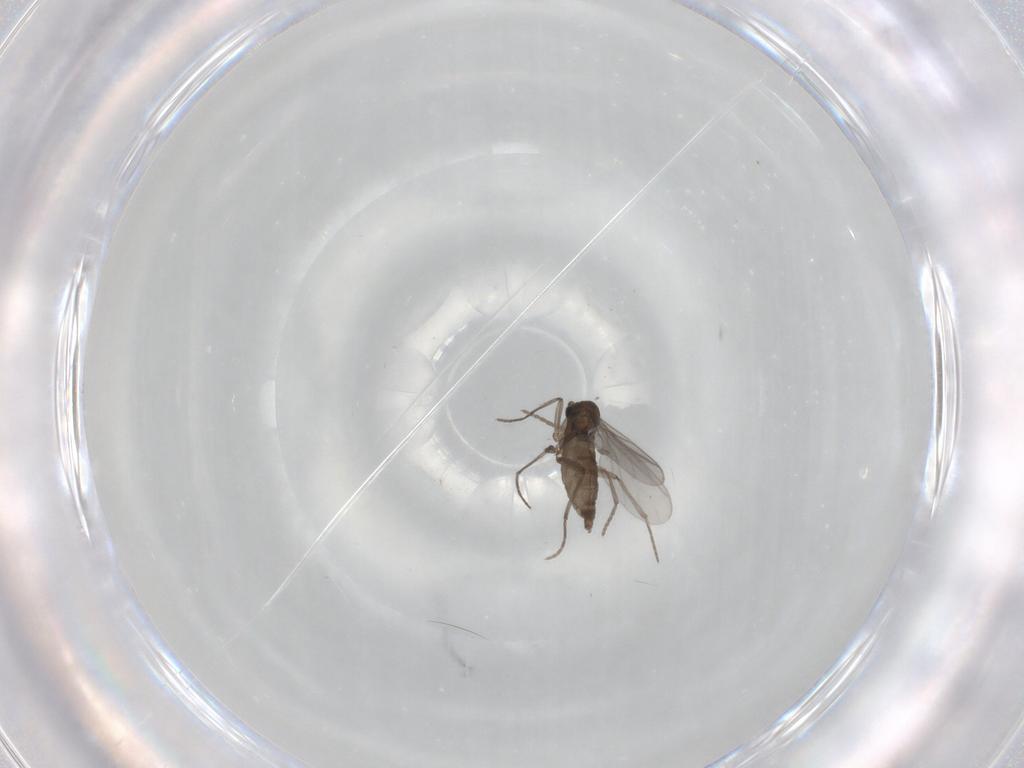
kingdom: Animalia
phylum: Arthropoda
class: Insecta
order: Diptera
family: Sciaridae
